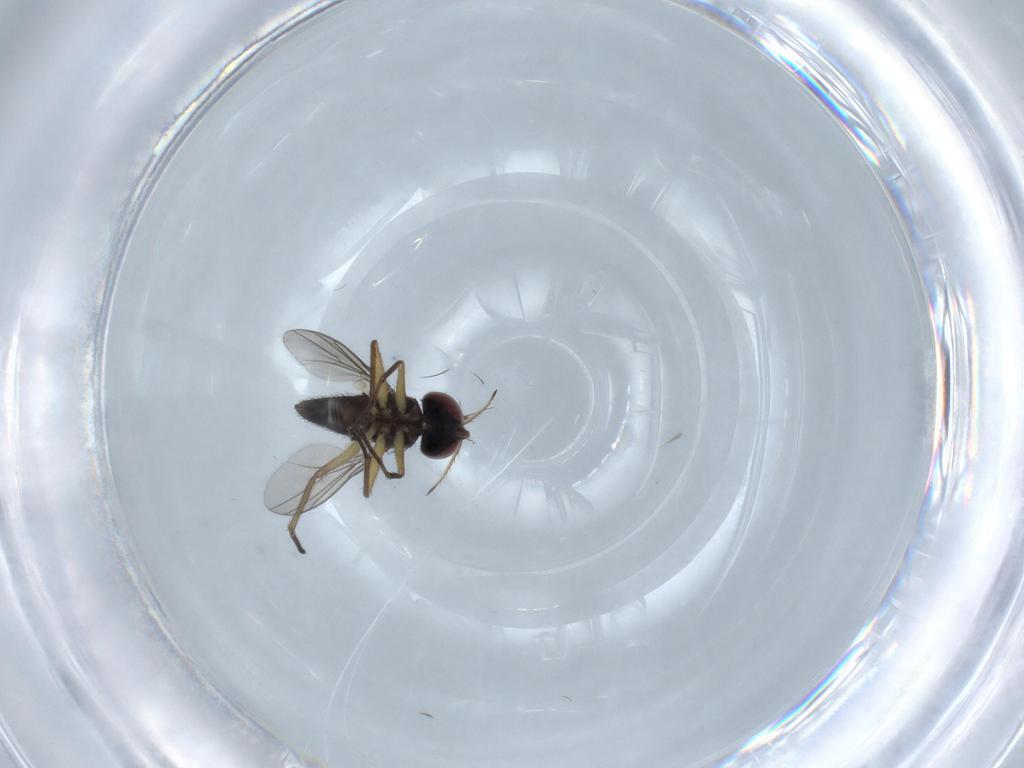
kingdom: Animalia
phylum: Arthropoda
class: Insecta
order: Diptera
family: Dolichopodidae
